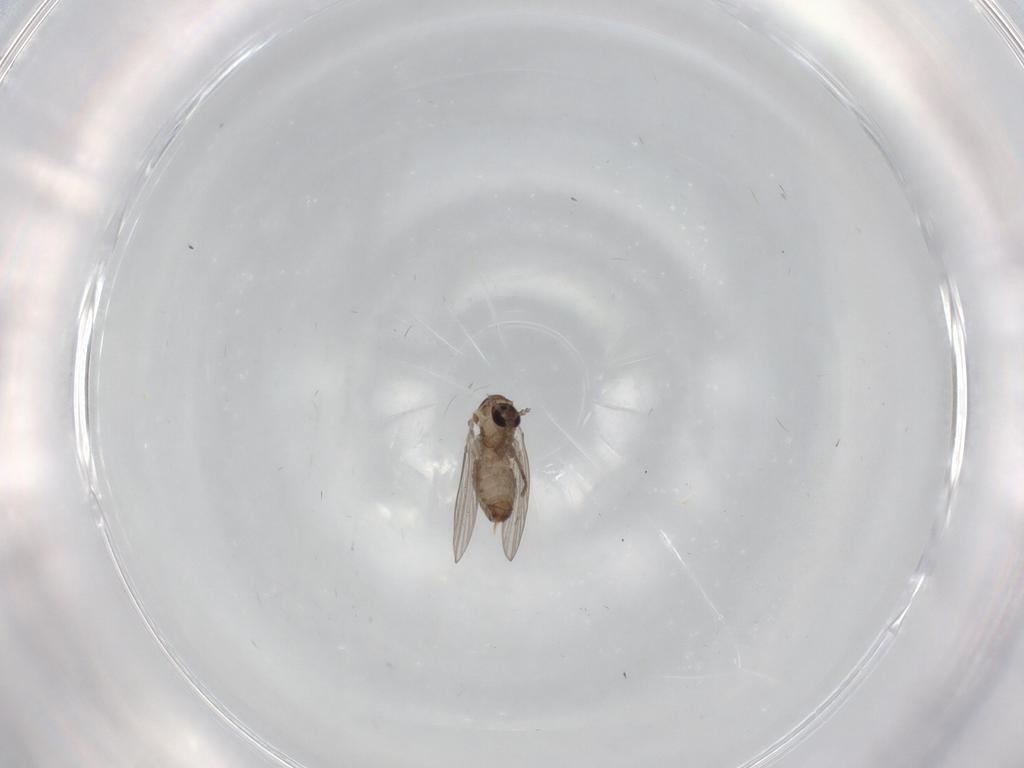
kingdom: Animalia
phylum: Arthropoda
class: Insecta
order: Diptera
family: Psychodidae
